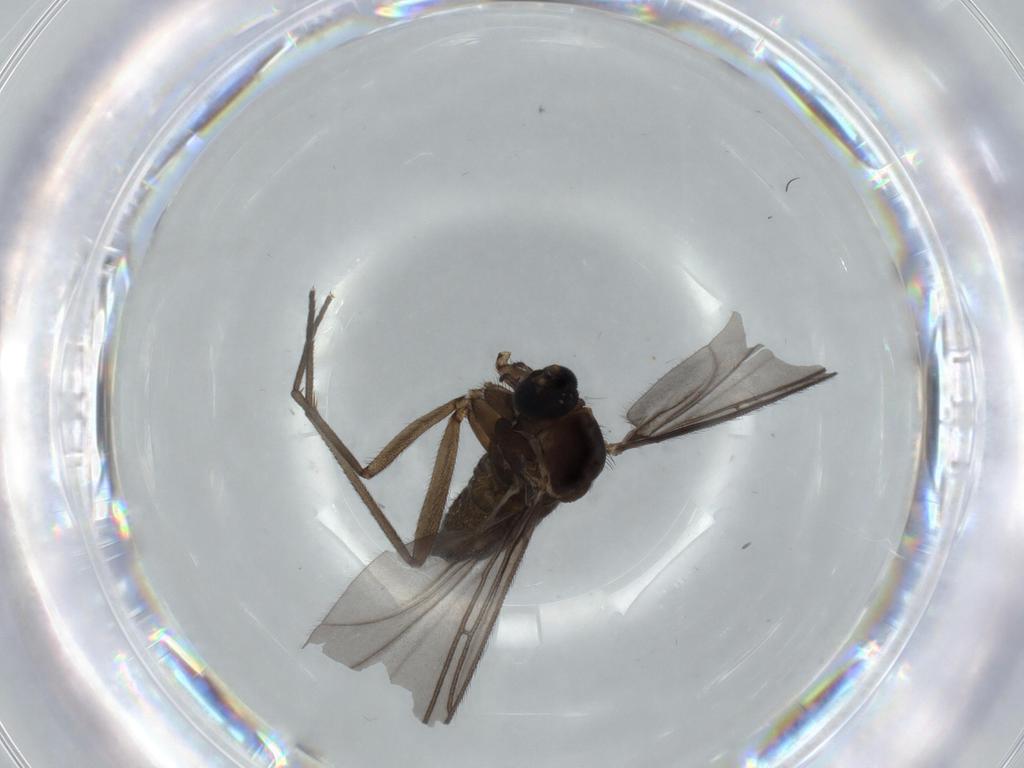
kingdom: Animalia
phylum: Arthropoda
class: Insecta
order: Diptera
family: Sciaridae
